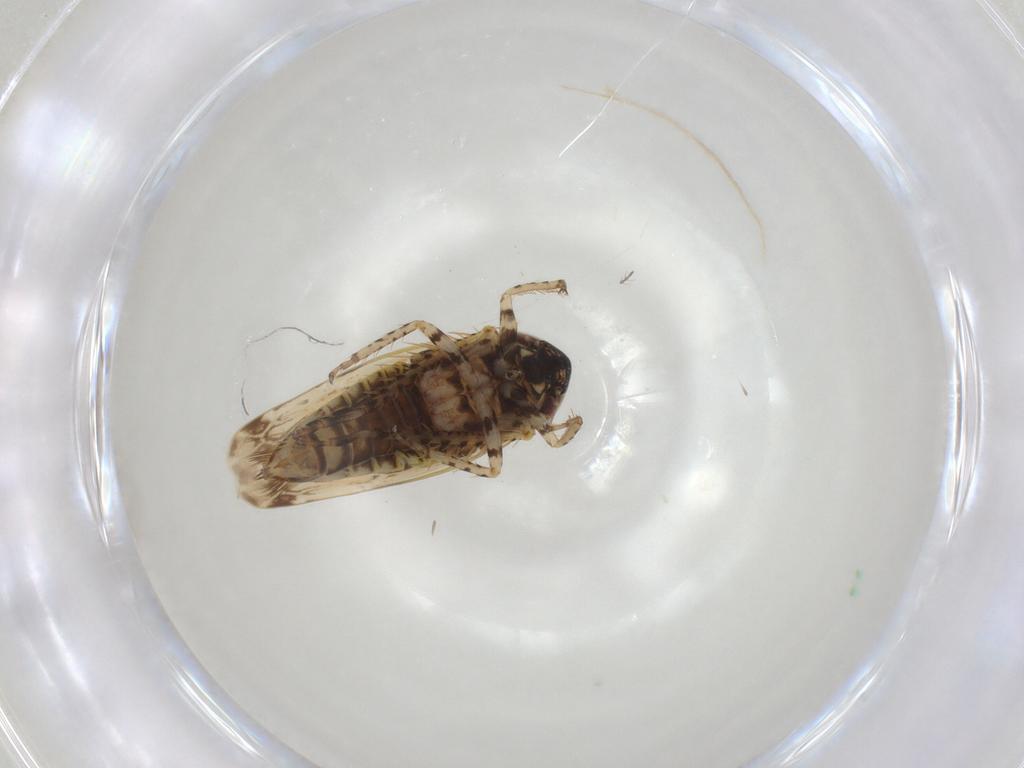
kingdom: Animalia
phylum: Arthropoda
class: Insecta
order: Hemiptera
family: Cicadellidae
